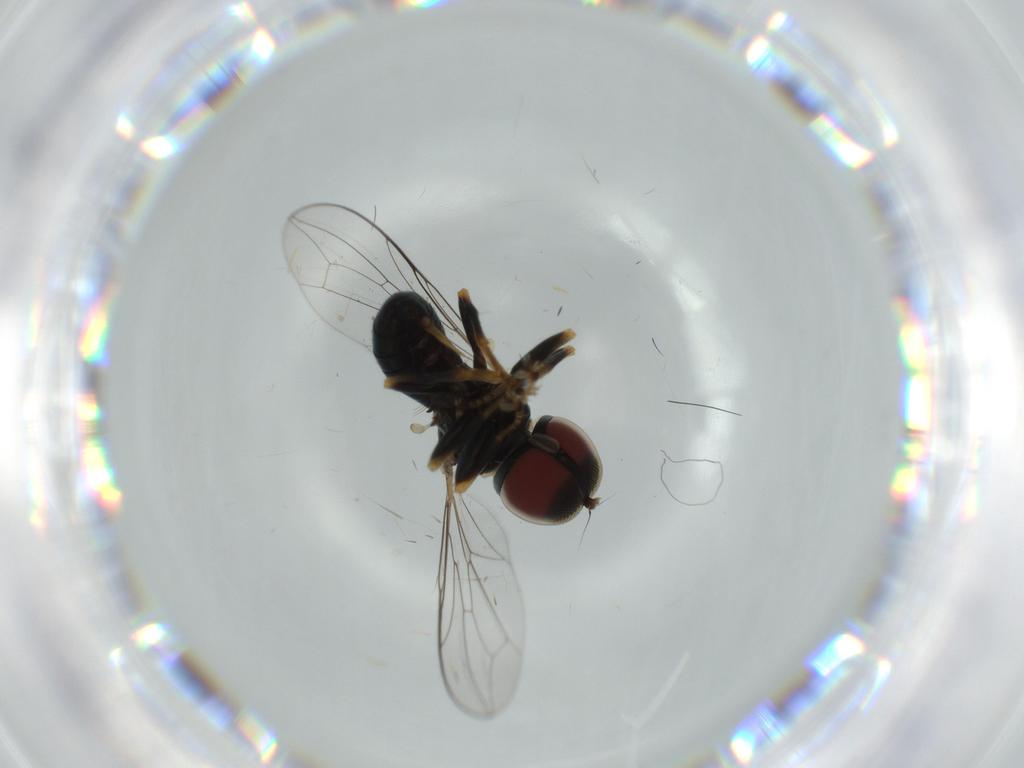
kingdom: Animalia
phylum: Arthropoda
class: Insecta
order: Diptera
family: Pipunculidae
